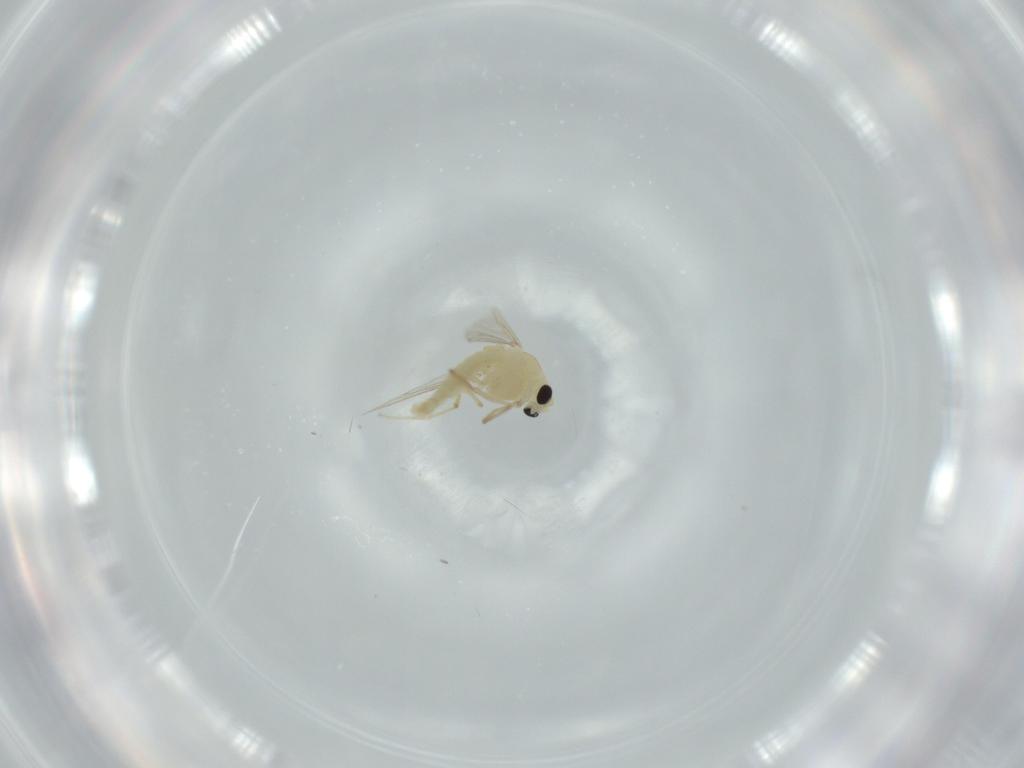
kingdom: Animalia
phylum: Arthropoda
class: Insecta
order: Diptera
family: Chironomidae
